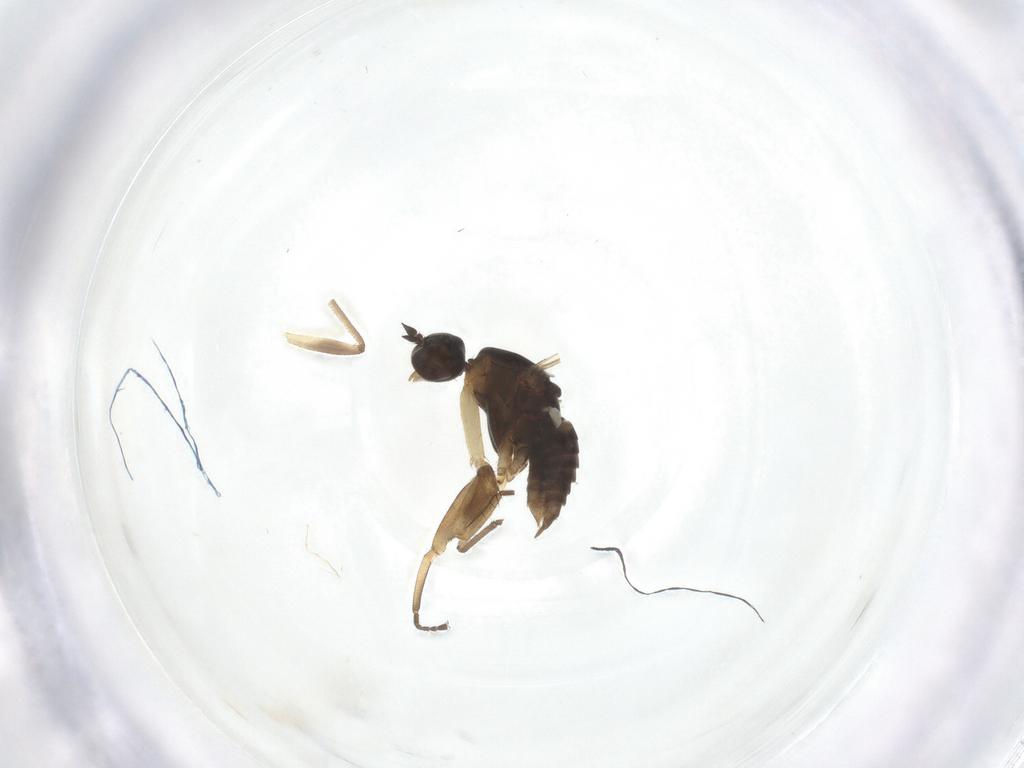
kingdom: Animalia
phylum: Arthropoda
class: Insecta
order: Diptera
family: Empididae
